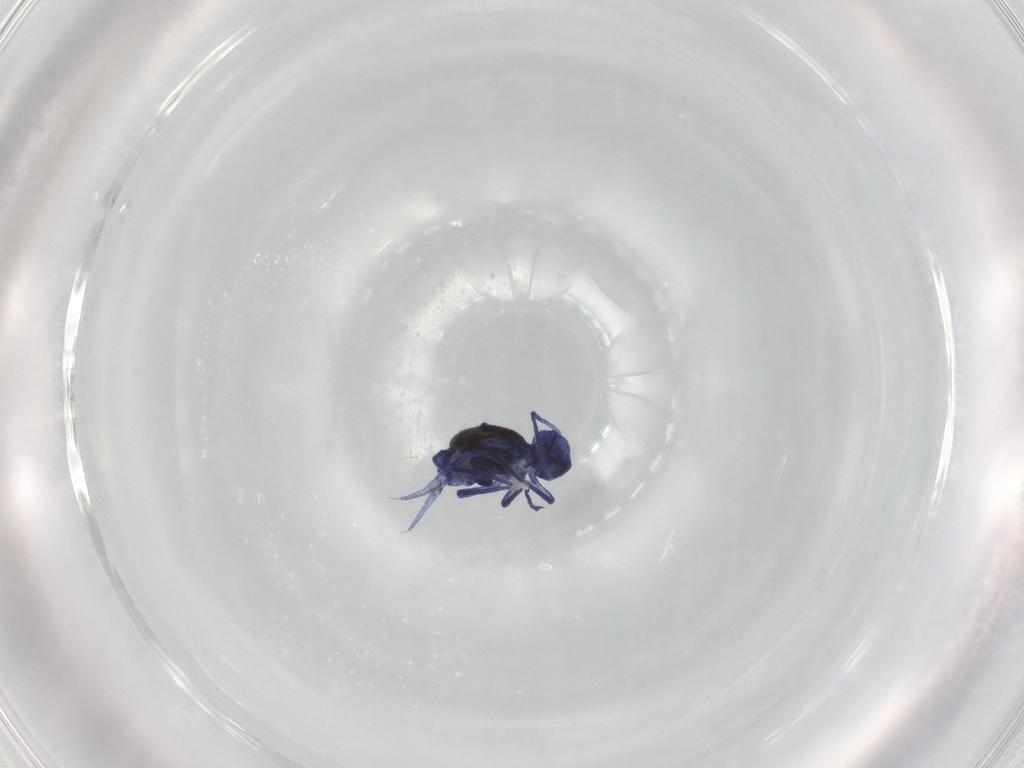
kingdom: Animalia
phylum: Arthropoda
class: Collembola
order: Symphypleona
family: Dicyrtomidae
